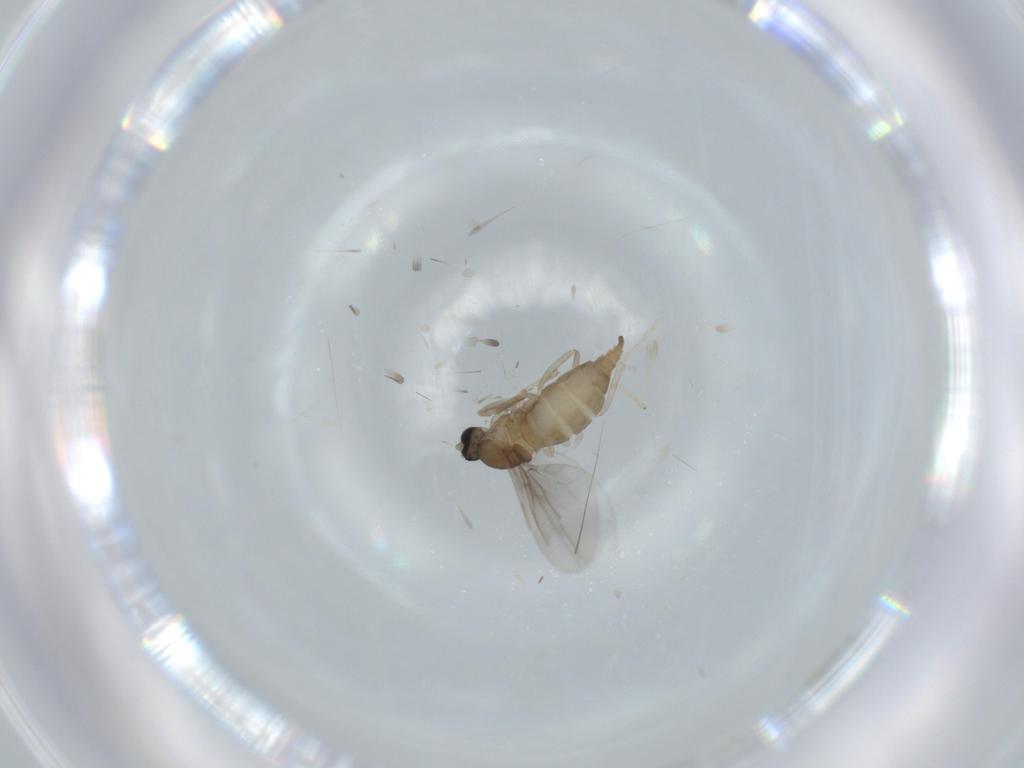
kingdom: Animalia
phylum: Arthropoda
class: Insecta
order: Diptera
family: Cecidomyiidae
